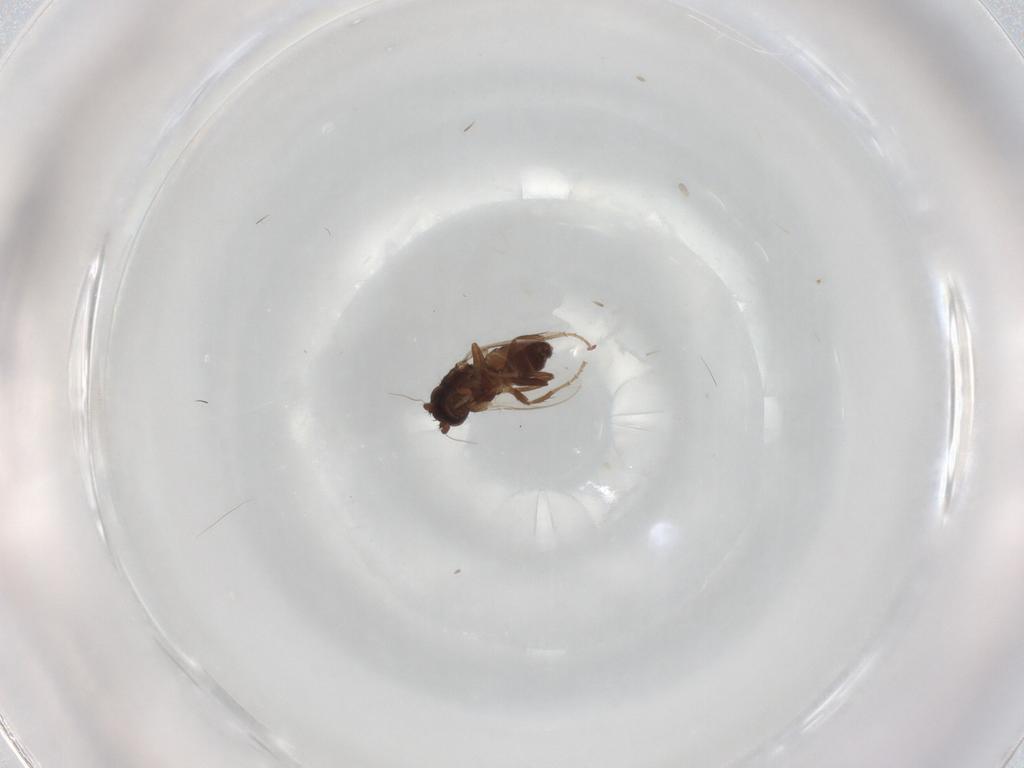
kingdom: Animalia
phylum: Arthropoda
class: Insecta
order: Diptera
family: Sphaeroceridae
